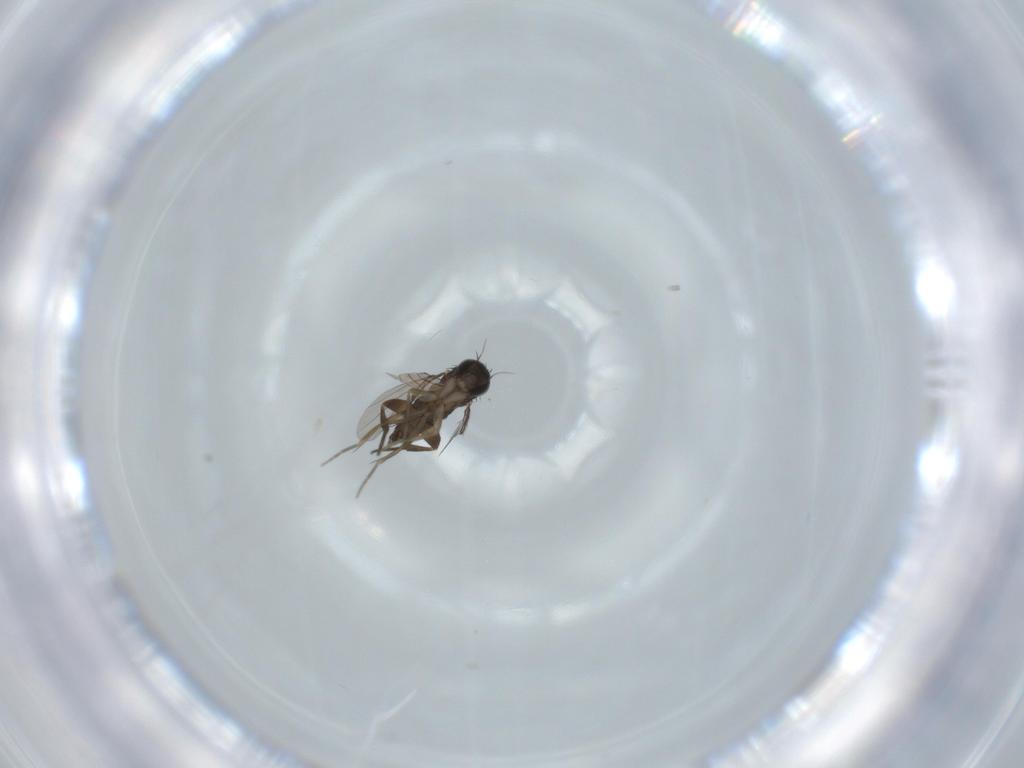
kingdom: Animalia
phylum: Arthropoda
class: Insecta
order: Diptera
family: Phoridae
